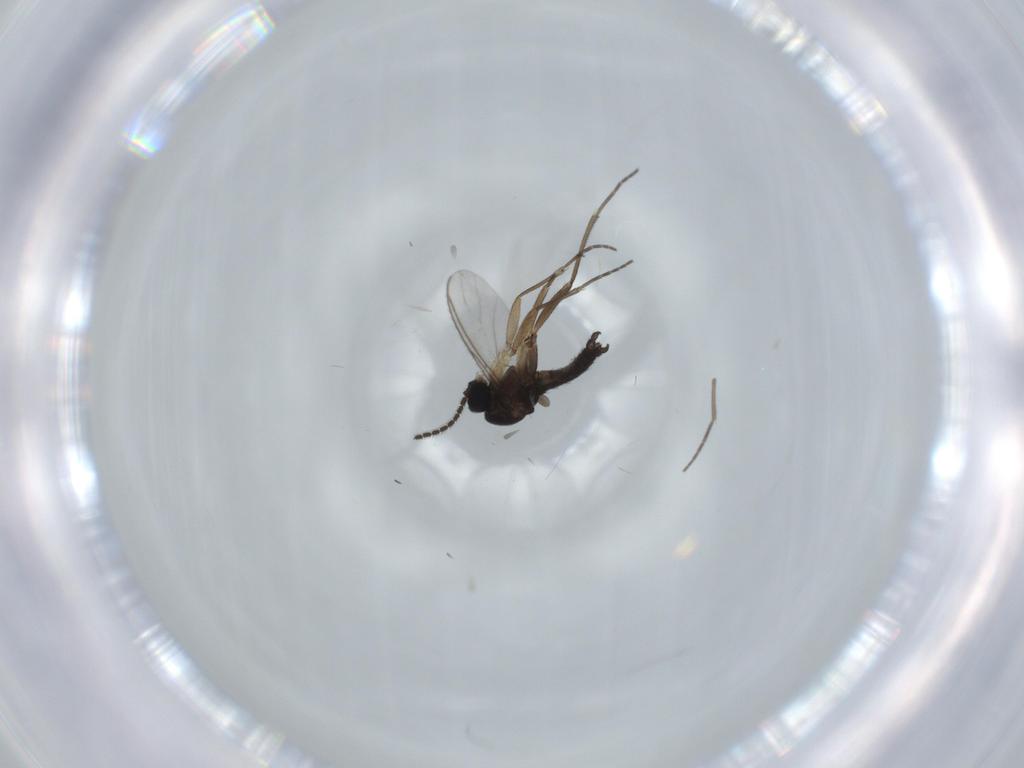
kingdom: Animalia
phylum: Arthropoda
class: Insecta
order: Diptera
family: Sciaridae
